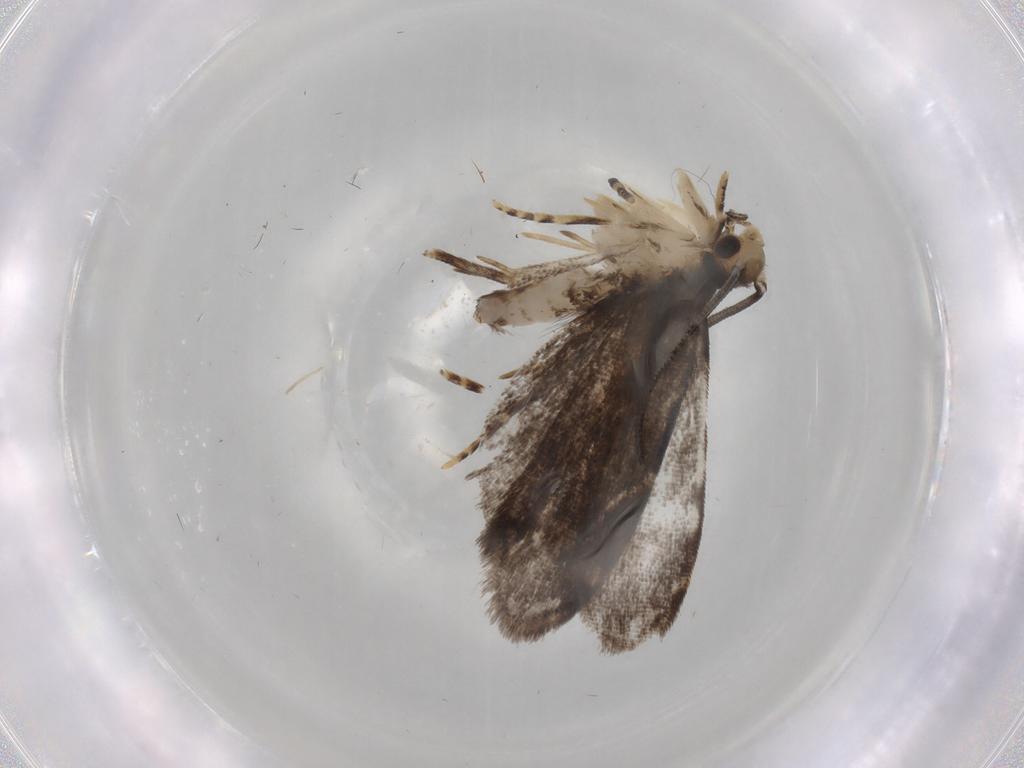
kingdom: Animalia
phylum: Arthropoda
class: Insecta
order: Lepidoptera
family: Dryadaulidae
